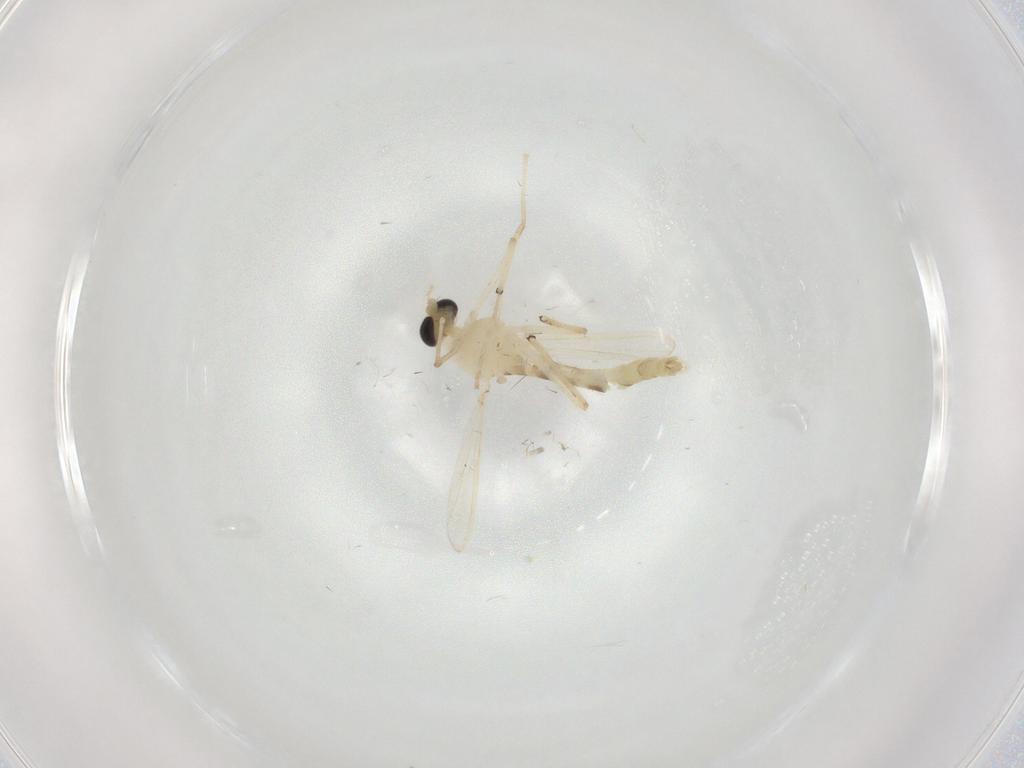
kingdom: Animalia
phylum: Arthropoda
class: Insecta
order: Diptera
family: Chironomidae
